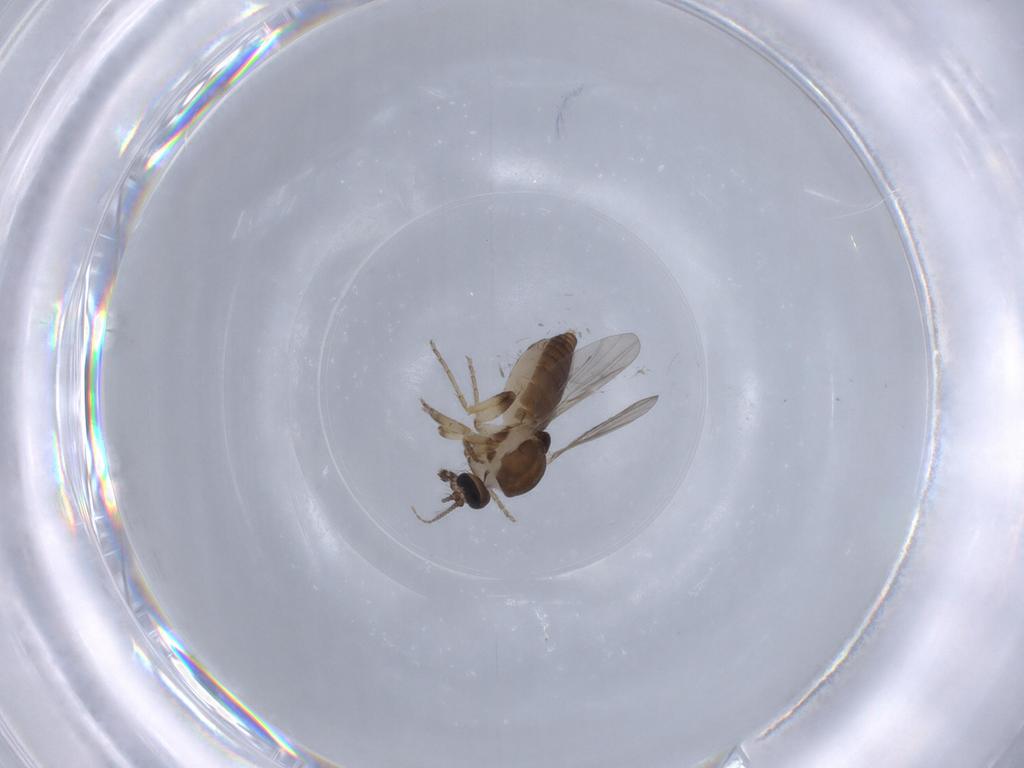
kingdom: Animalia
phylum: Arthropoda
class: Insecta
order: Diptera
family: Ceratopogonidae
